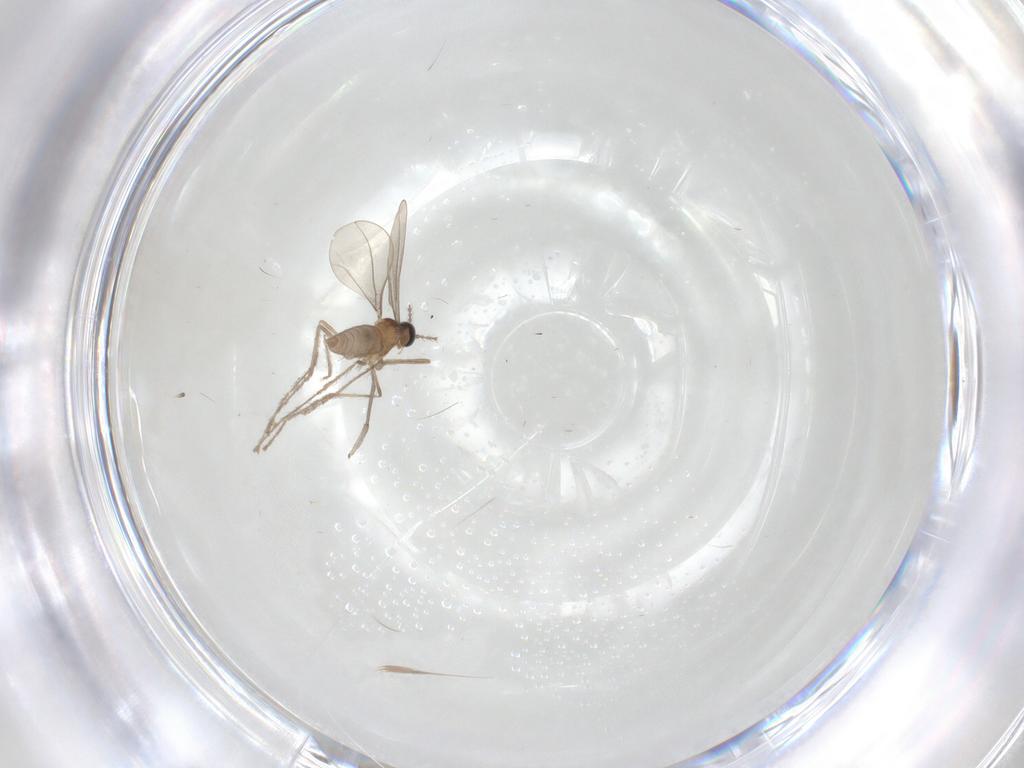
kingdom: Animalia
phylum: Arthropoda
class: Insecta
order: Diptera
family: Sciaridae
